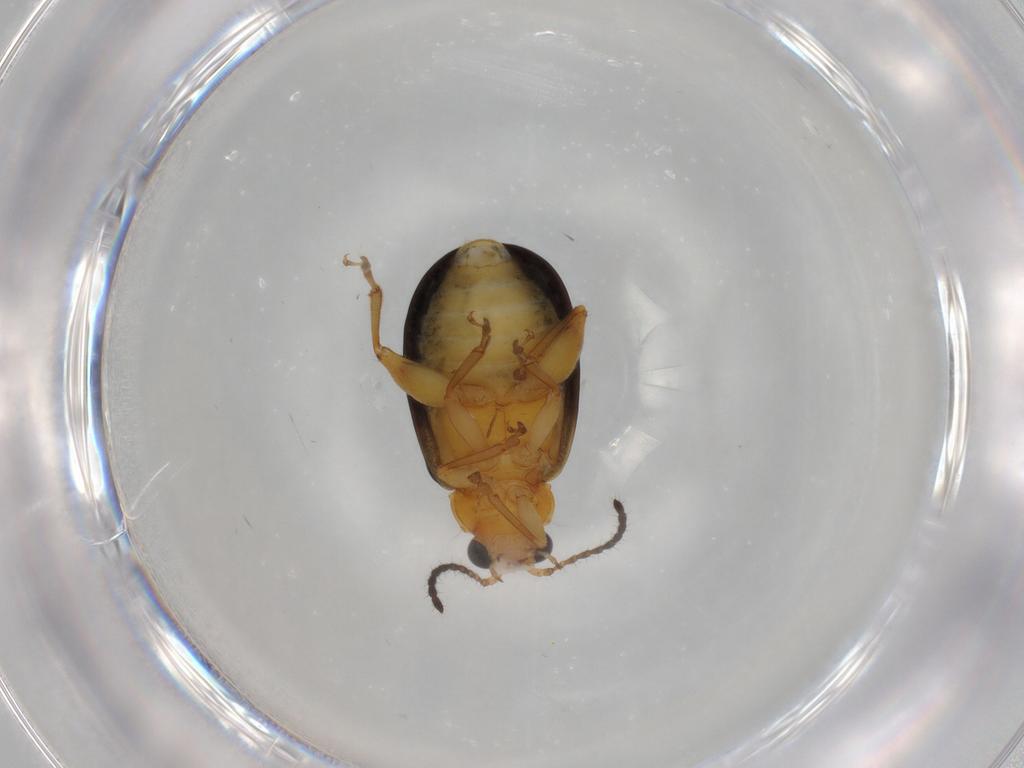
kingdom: Animalia
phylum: Arthropoda
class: Insecta
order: Coleoptera
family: Chrysomelidae
